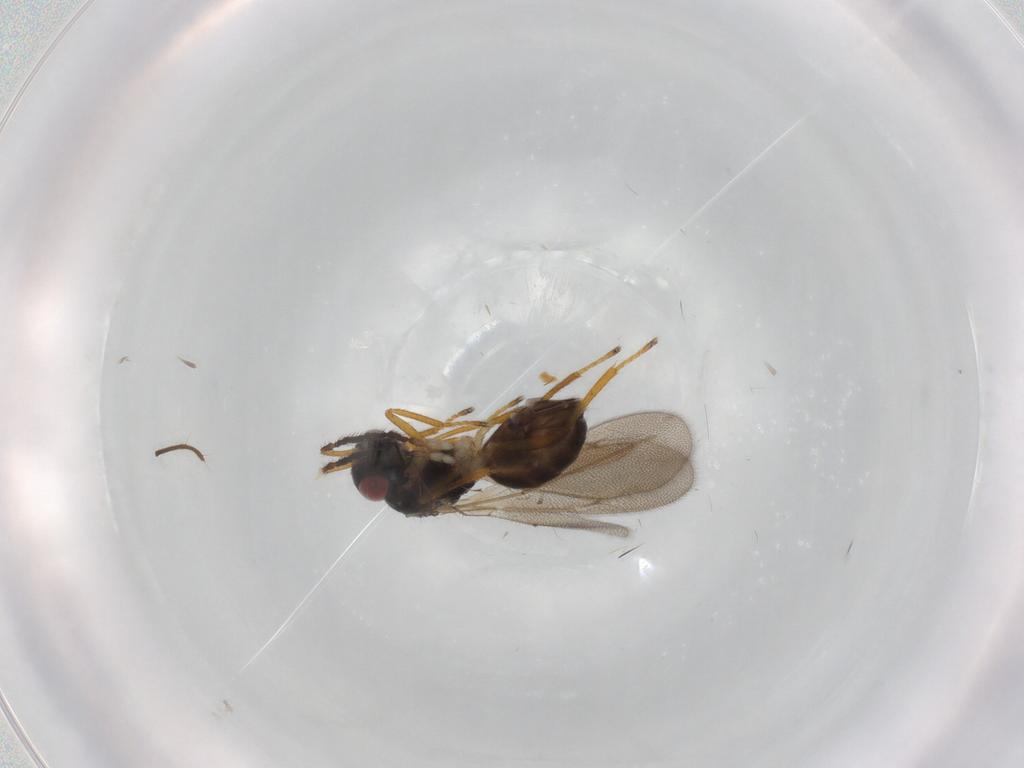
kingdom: Animalia
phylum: Arthropoda
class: Insecta
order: Hymenoptera
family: Eulophidae
